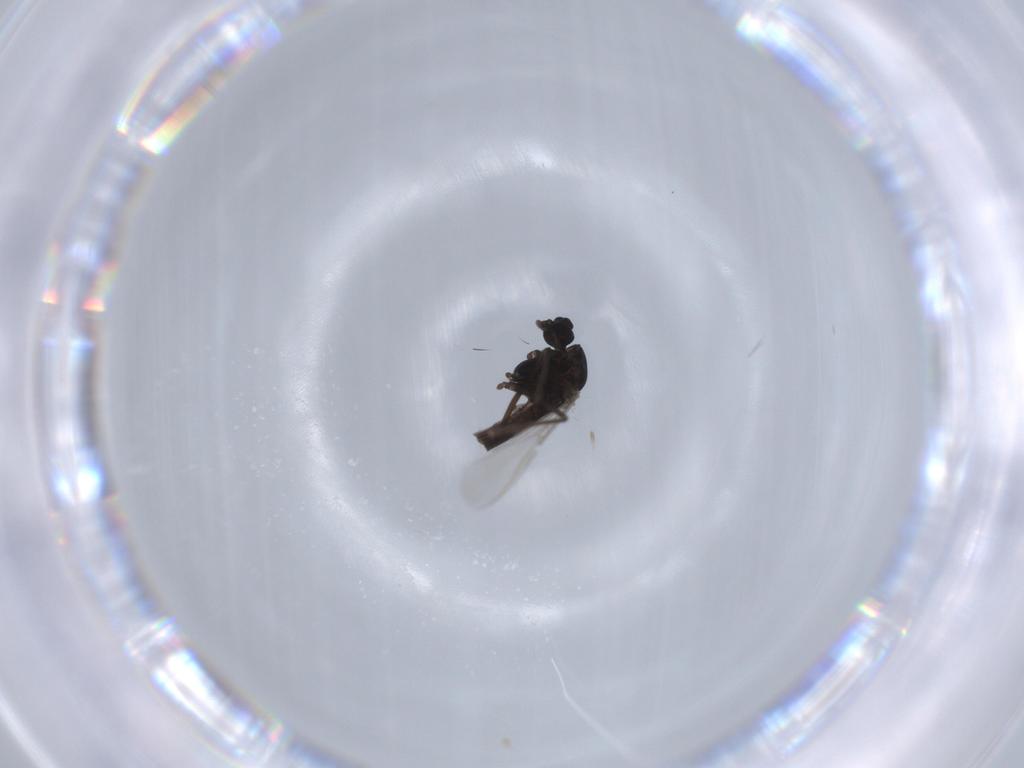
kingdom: Animalia
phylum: Arthropoda
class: Insecta
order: Diptera
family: Chironomidae
